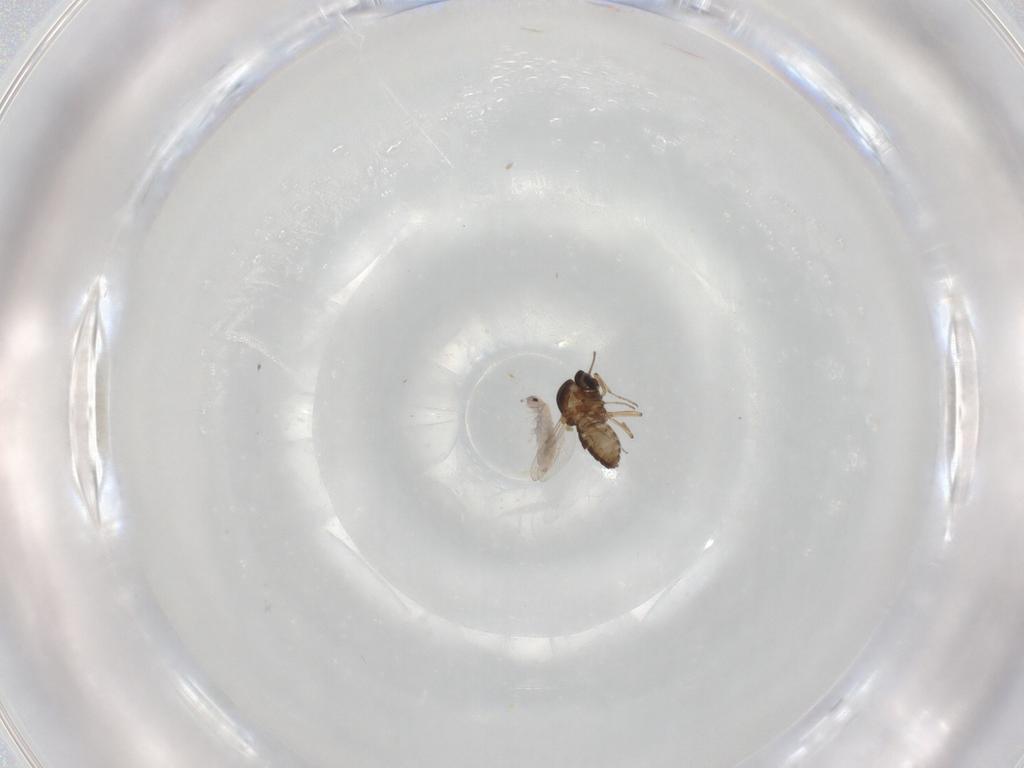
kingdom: Animalia
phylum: Arthropoda
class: Insecta
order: Diptera
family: Ceratopogonidae
